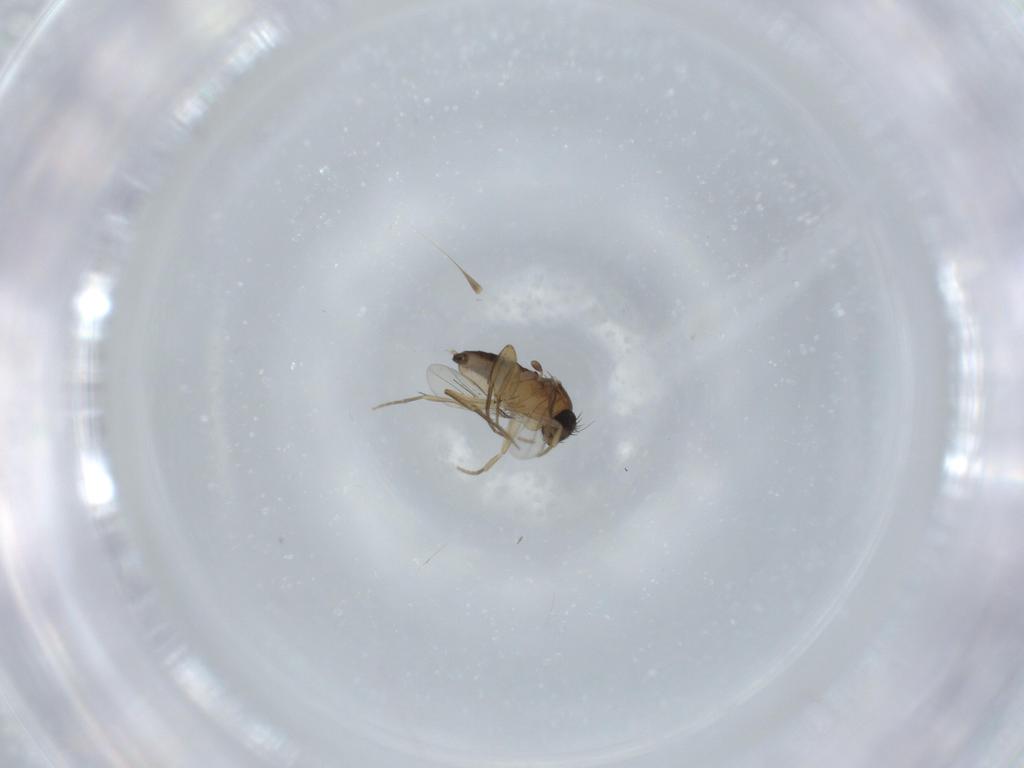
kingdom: Animalia
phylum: Arthropoda
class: Insecta
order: Diptera
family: Phoridae
